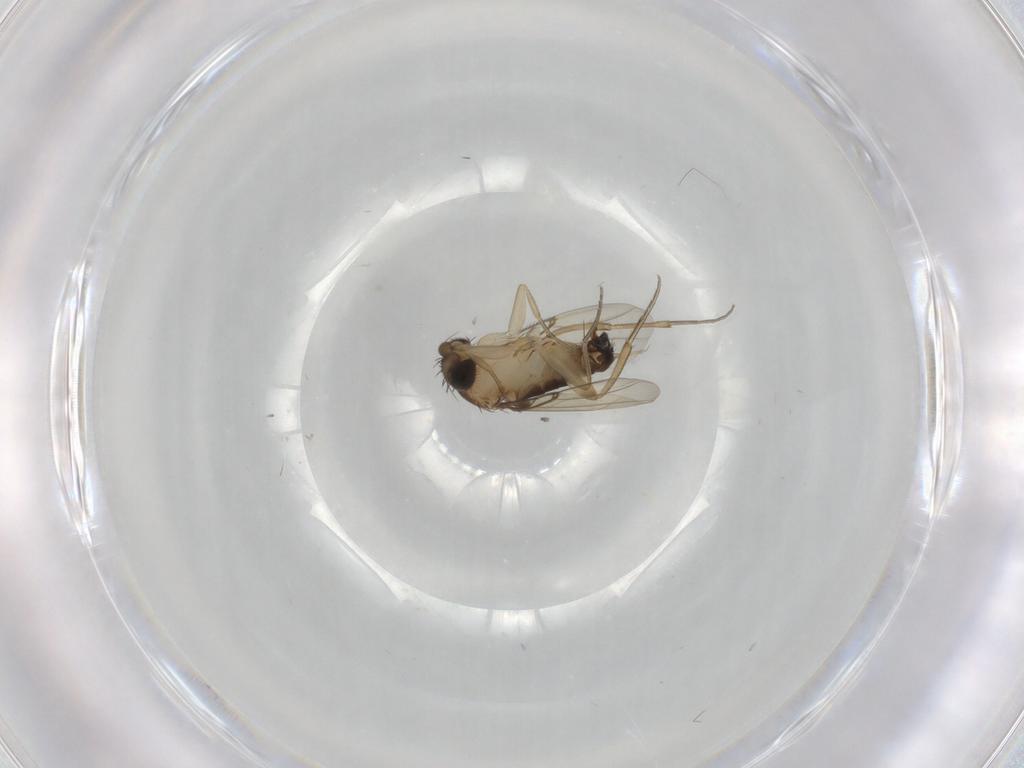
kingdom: Animalia
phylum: Arthropoda
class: Insecta
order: Diptera
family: Phoridae
